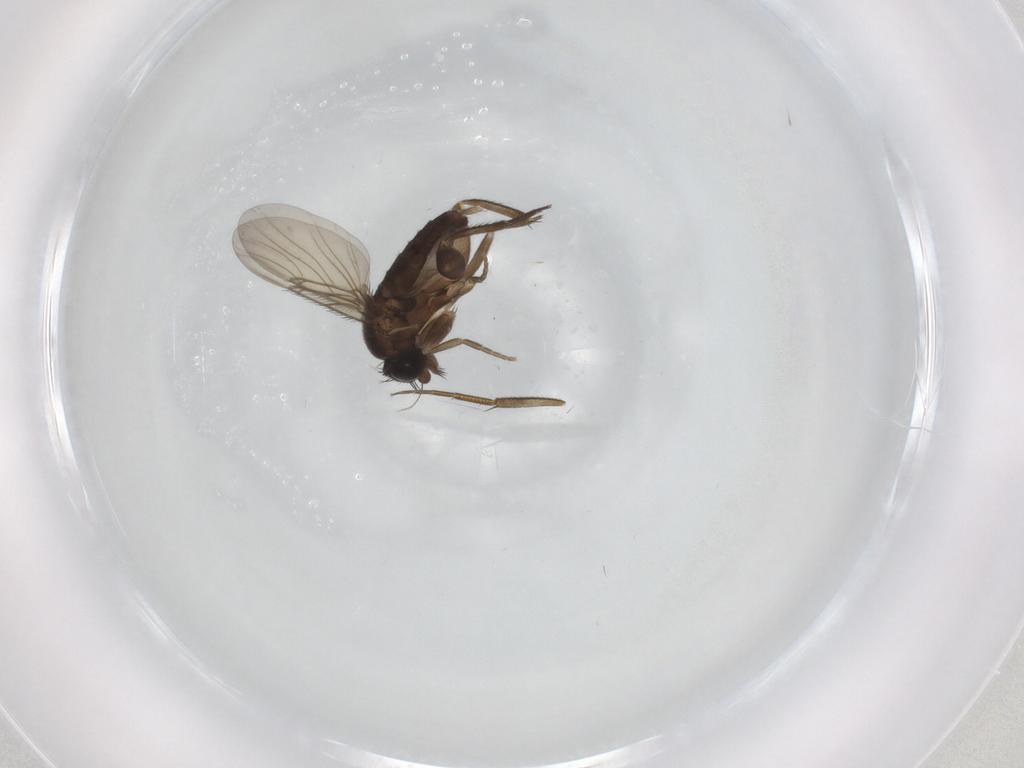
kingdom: Animalia
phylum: Arthropoda
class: Insecta
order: Diptera
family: Phoridae
